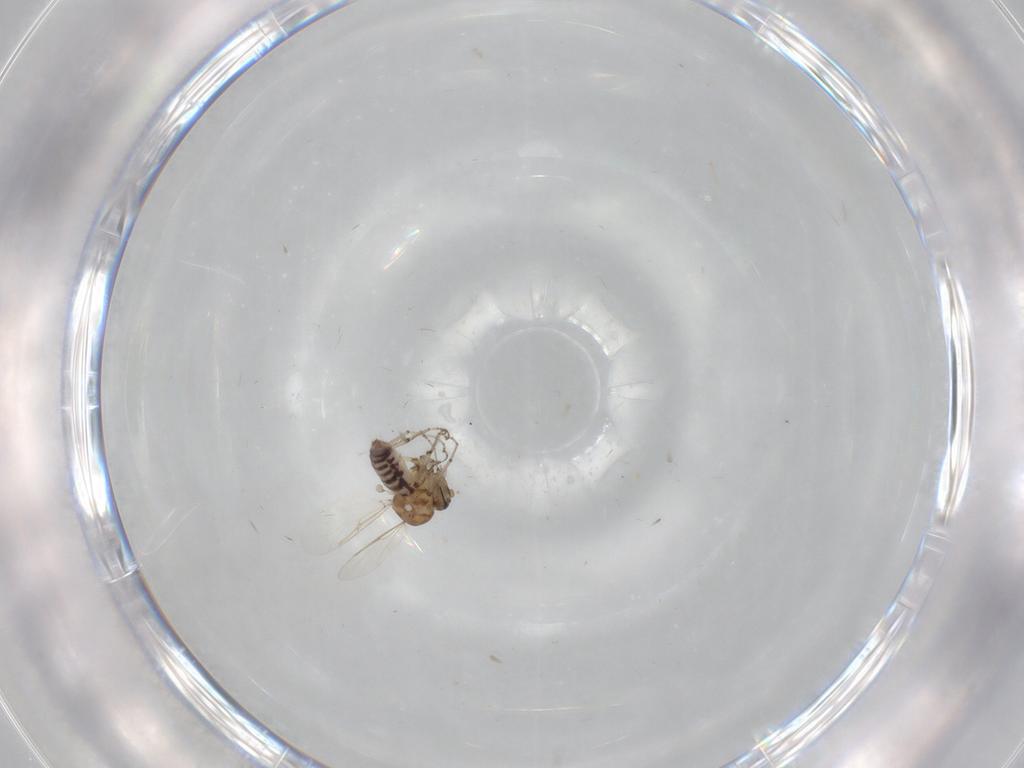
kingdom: Animalia
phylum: Arthropoda
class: Insecta
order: Diptera
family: Ceratopogonidae
